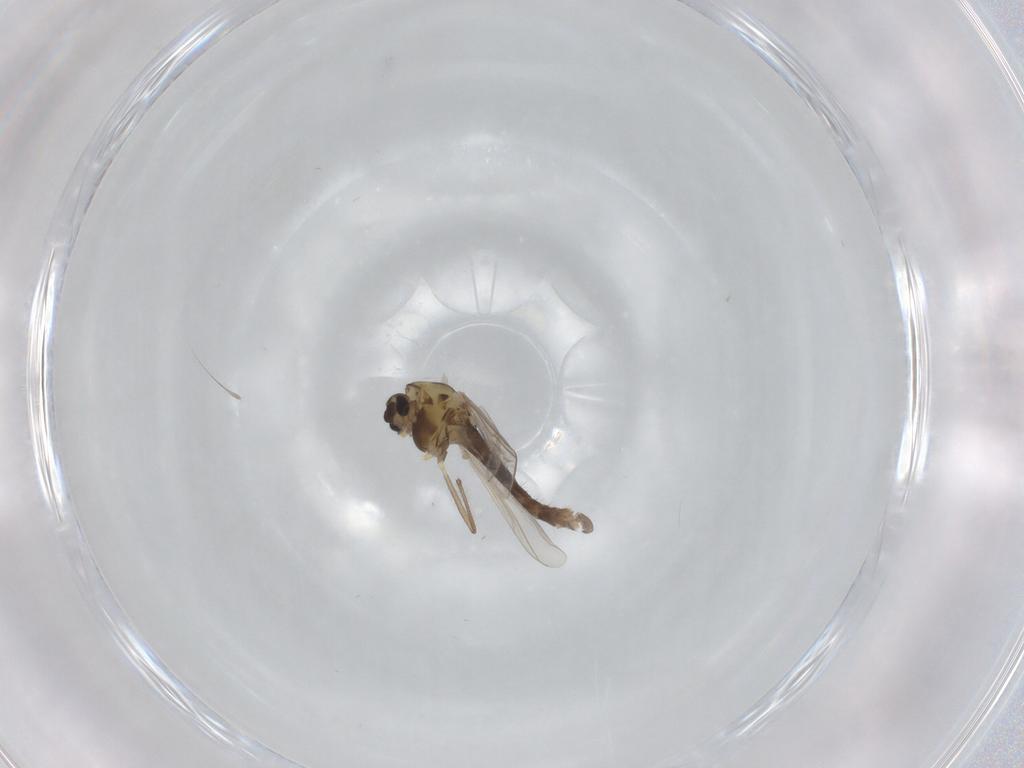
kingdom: Animalia
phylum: Arthropoda
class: Insecta
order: Diptera
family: Chironomidae
